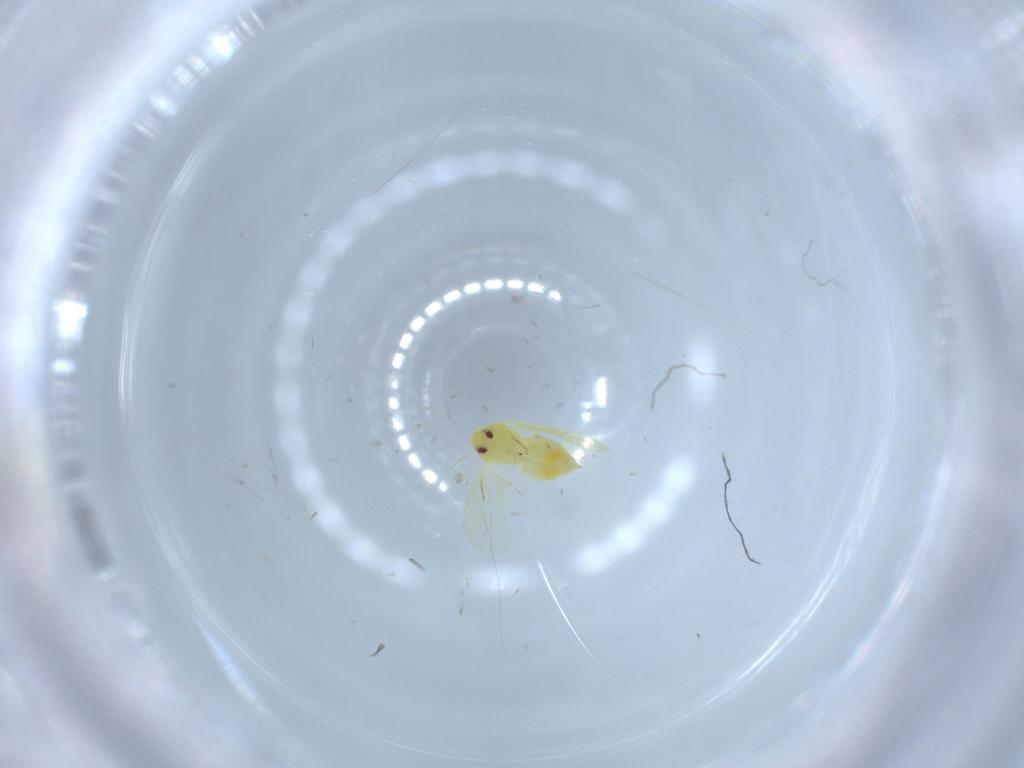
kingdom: Animalia
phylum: Arthropoda
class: Insecta
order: Hemiptera
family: Aleyrodidae
